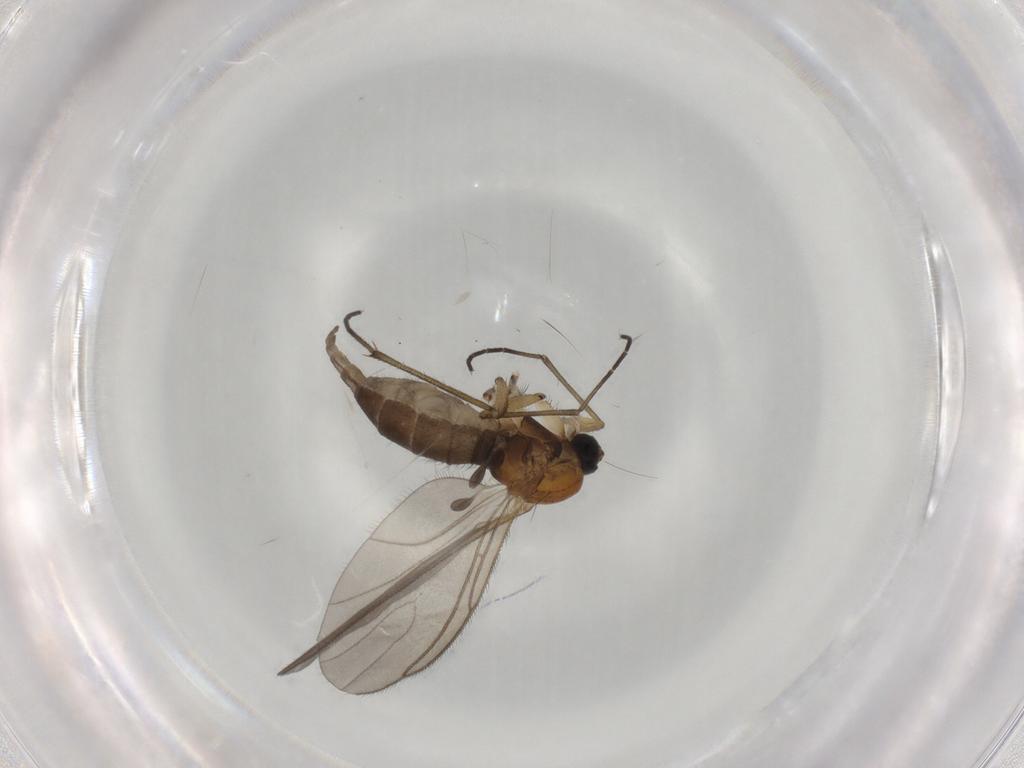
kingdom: Animalia
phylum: Arthropoda
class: Insecta
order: Diptera
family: Sciaridae
